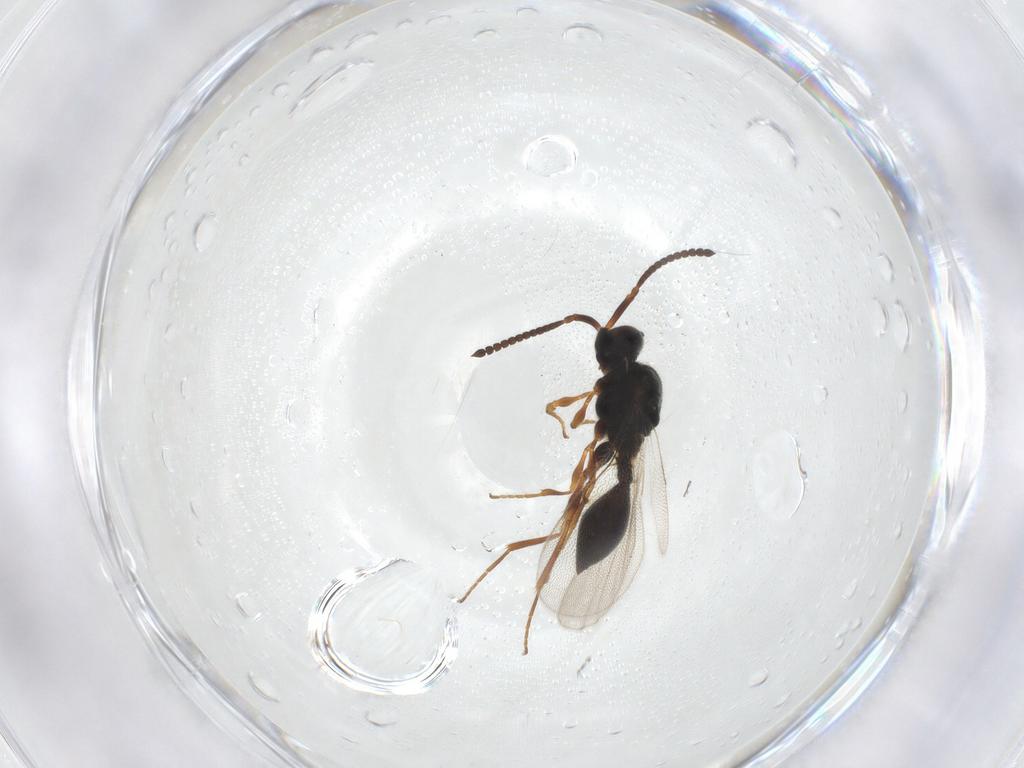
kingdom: Animalia
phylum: Arthropoda
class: Insecta
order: Hymenoptera
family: Diapriidae
